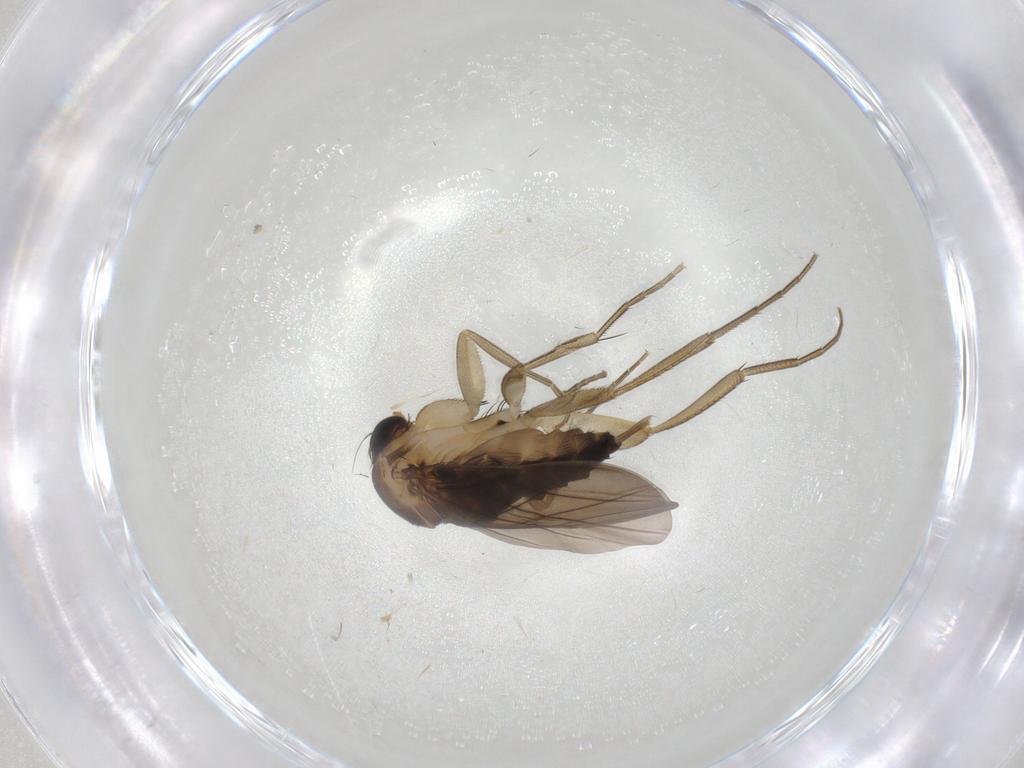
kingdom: Animalia
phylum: Arthropoda
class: Insecta
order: Diptera
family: Phoridae
